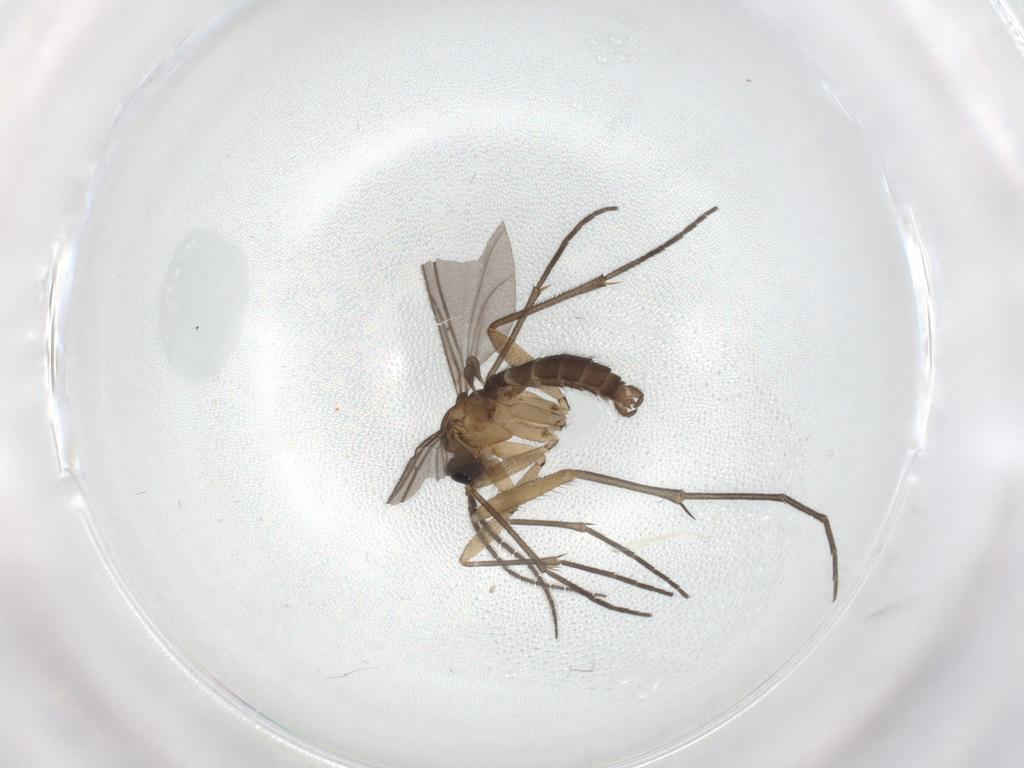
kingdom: Animalia
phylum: Arthropoda
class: Insecta
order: Diptera
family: Mycetophilidae
